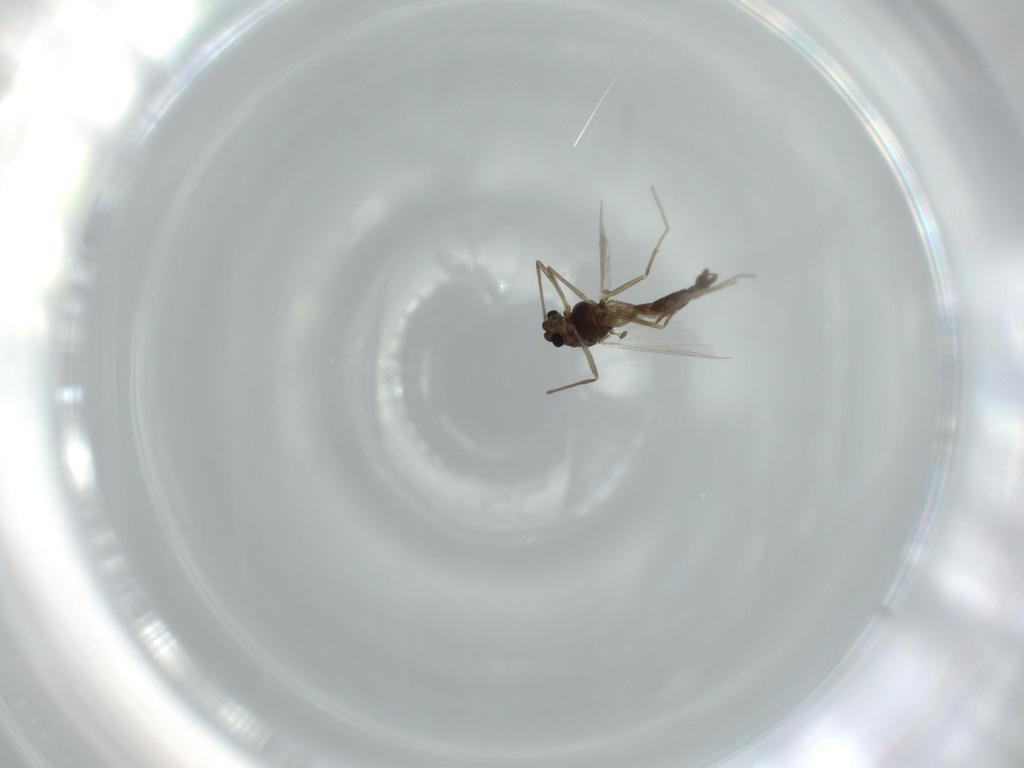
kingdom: Animalia
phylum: Arthropoda
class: Insecta
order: Diptera
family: Chironomidae
